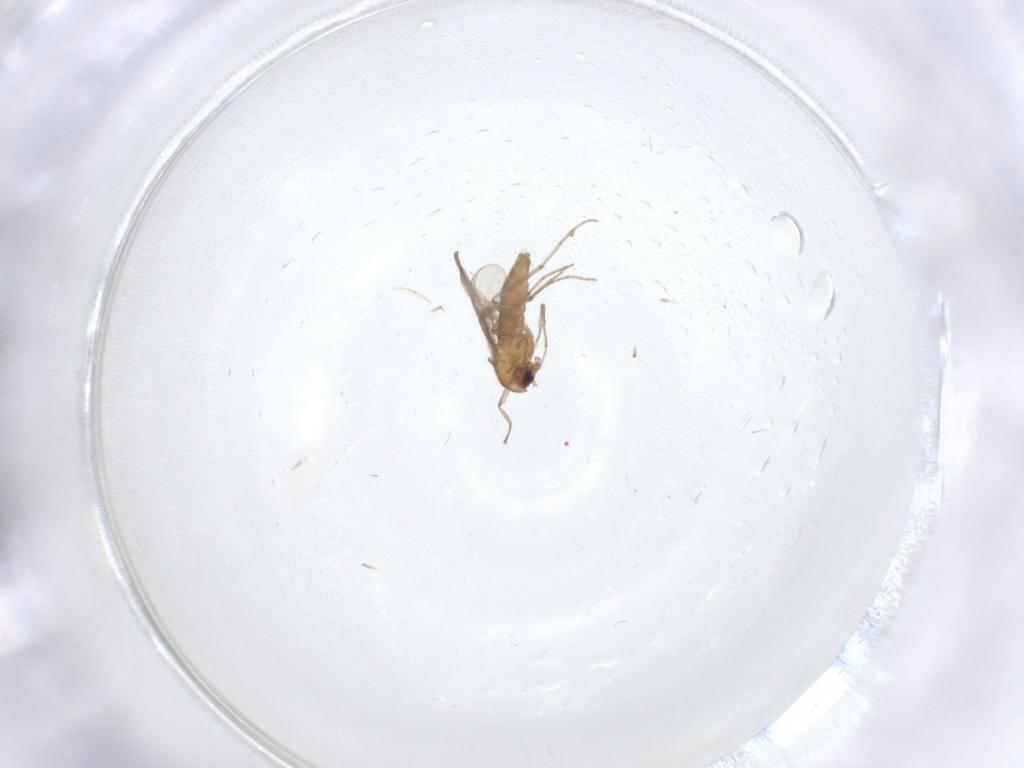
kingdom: Animalia
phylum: Arthropoda
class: Insecta
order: Diptera
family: Chironomidae
